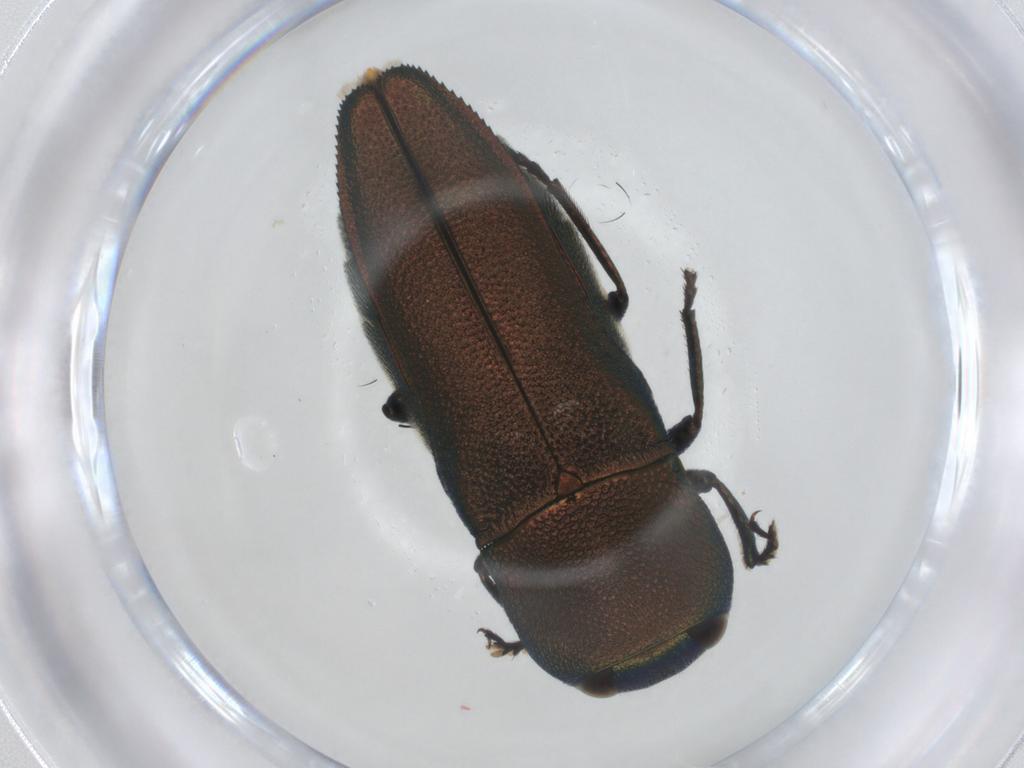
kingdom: Animalia
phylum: Arthropoda
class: Insecta
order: Coleoptera
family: Buprestidae
